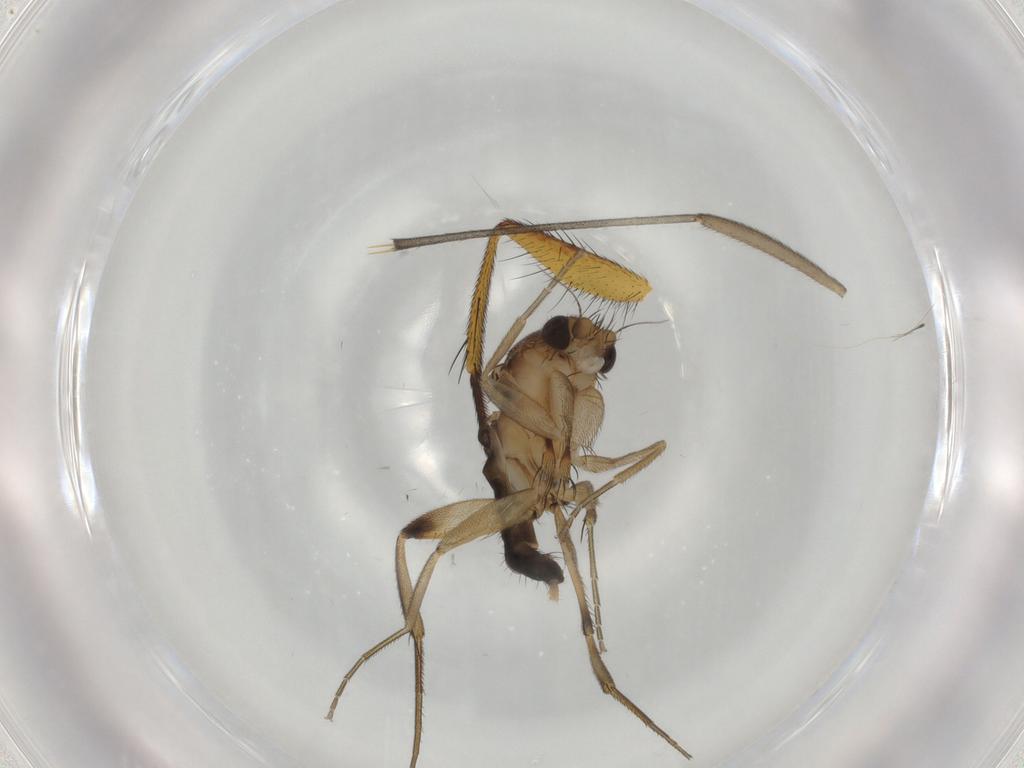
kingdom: Animalia
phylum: Arthropoda
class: Insecta
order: Diptera
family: Phoridae
